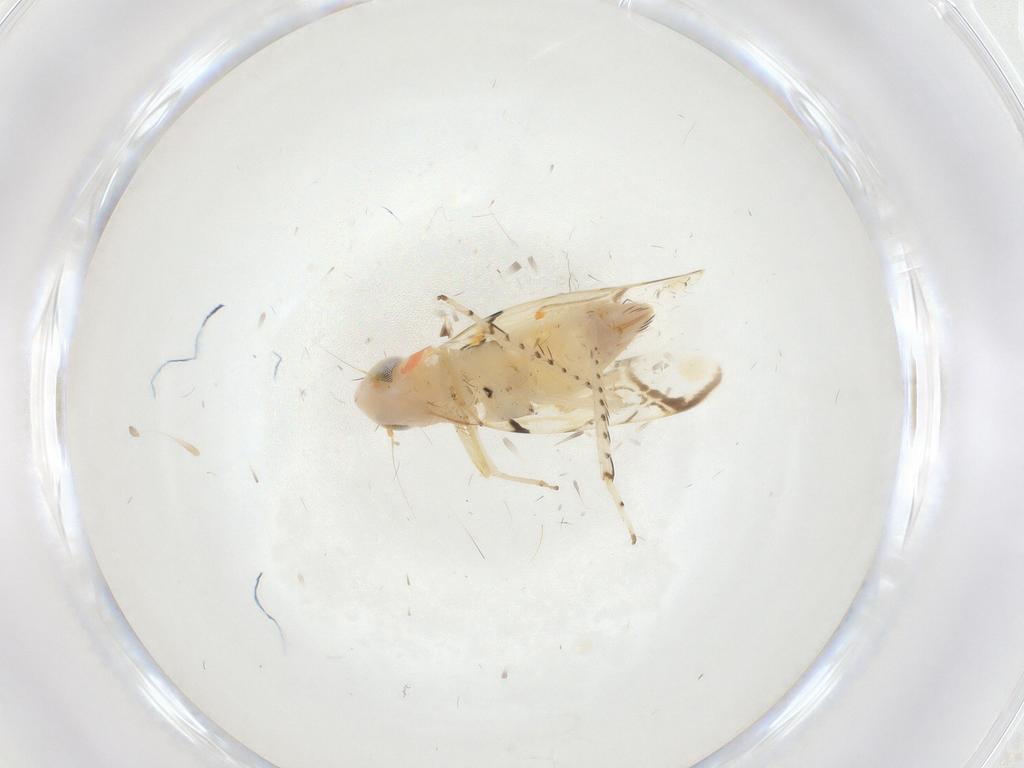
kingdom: Animalia
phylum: Arthropoda
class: Insecta
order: Hemiptera
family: Cicadellidae
